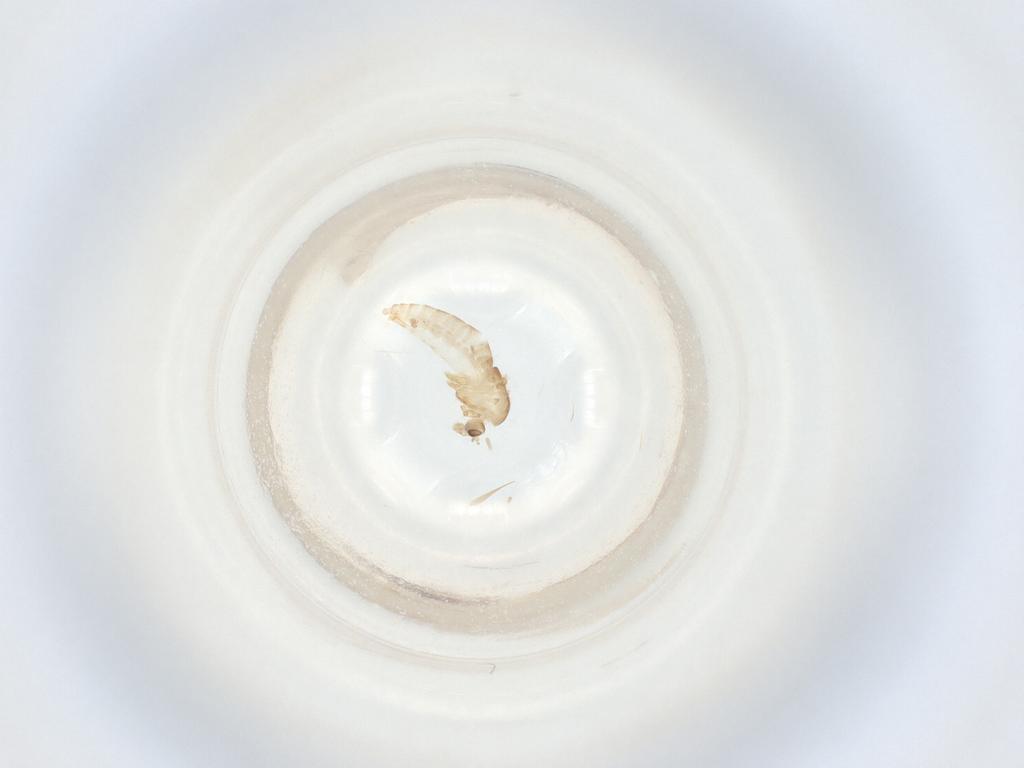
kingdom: Animalia
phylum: Arthropoda
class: Insecta
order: Diptera
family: Chironomidae
